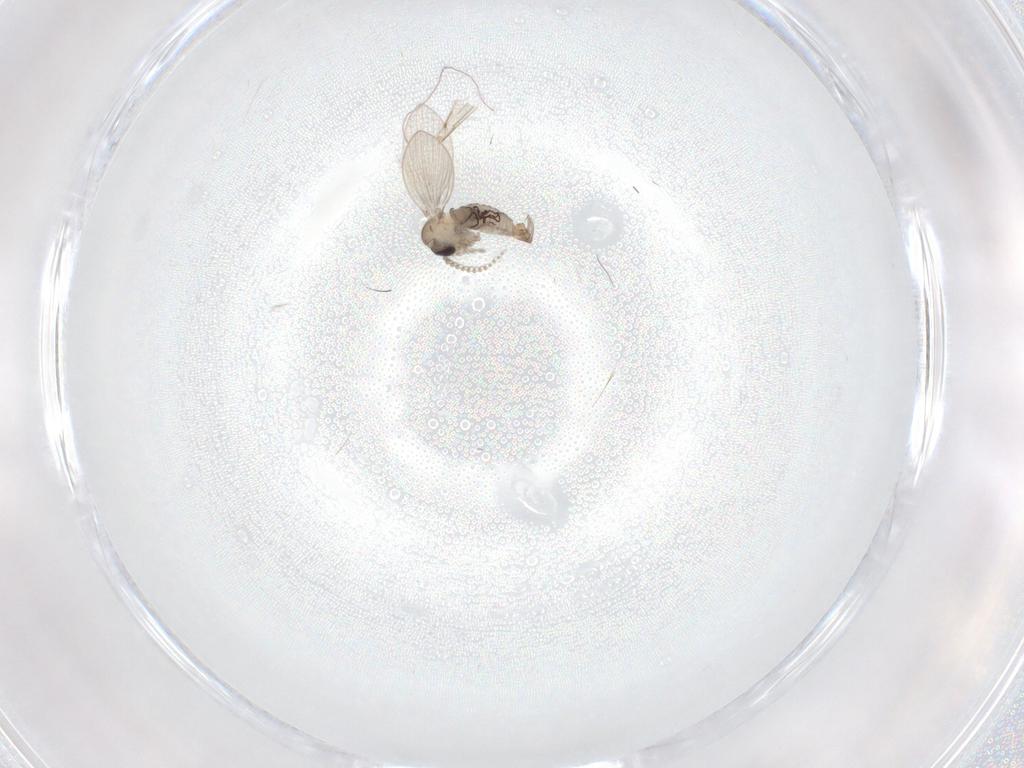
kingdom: Animalia
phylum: Arthropoda
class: Insecta
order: Diptera
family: Psychodidae
